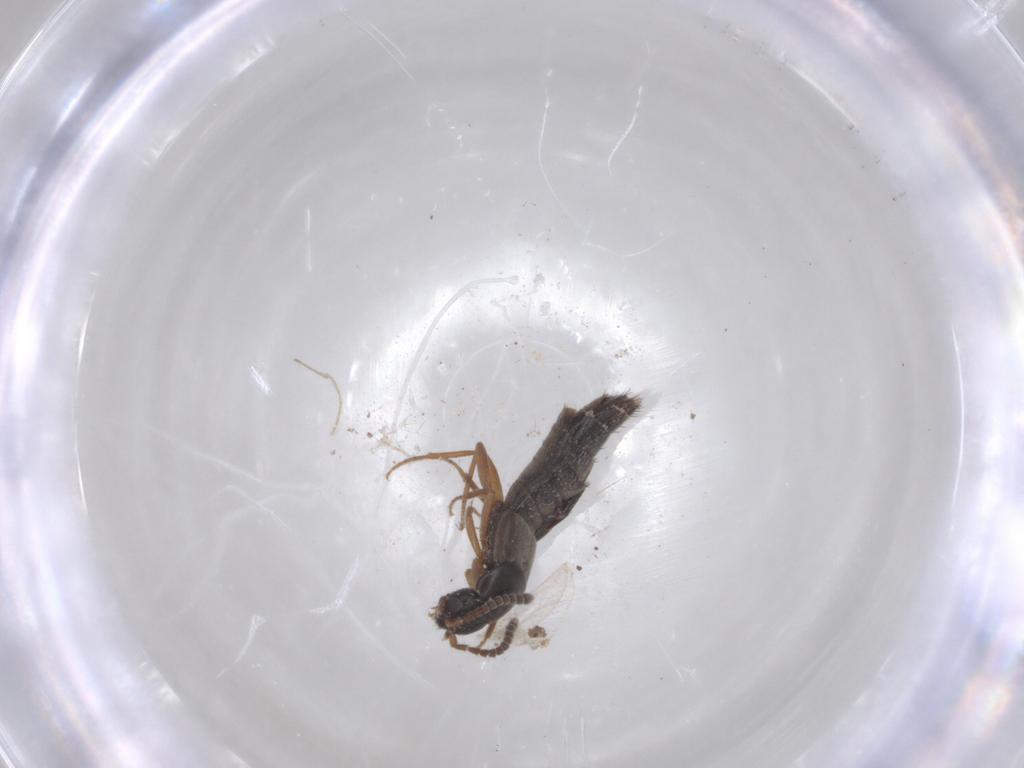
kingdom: Animalia
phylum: Arthropoda
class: Insecta
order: Coleoptera
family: Staphylinidae
